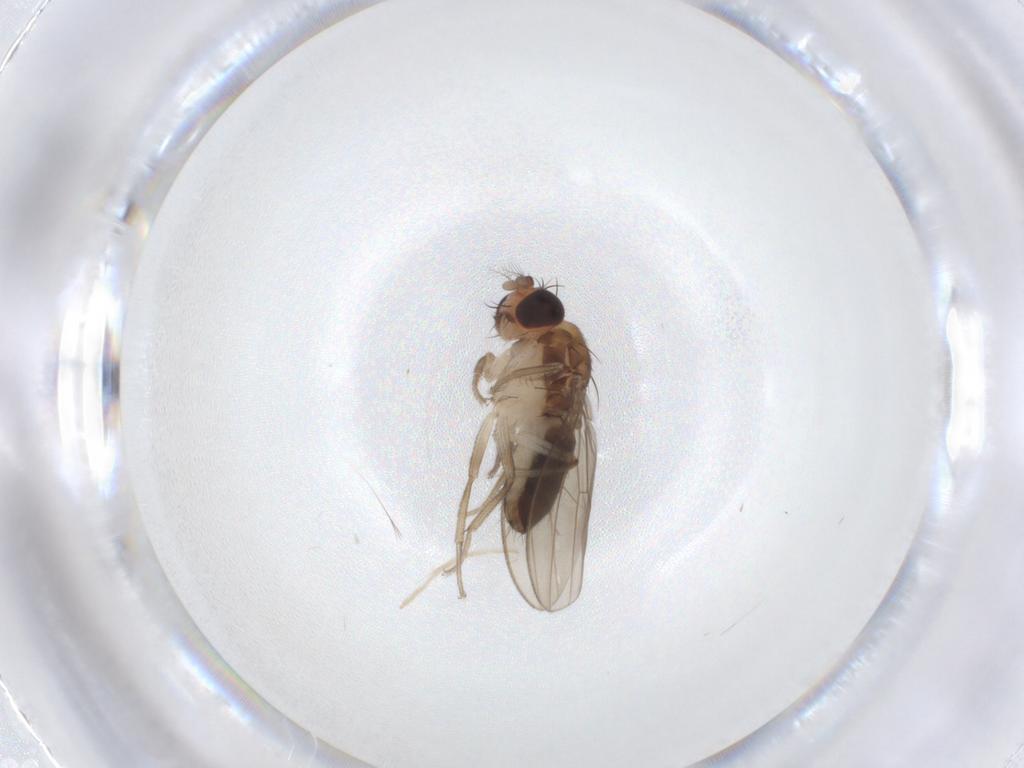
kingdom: Animalia
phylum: Arthropoda
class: Insecta
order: Diptera
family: Drosophilidae
